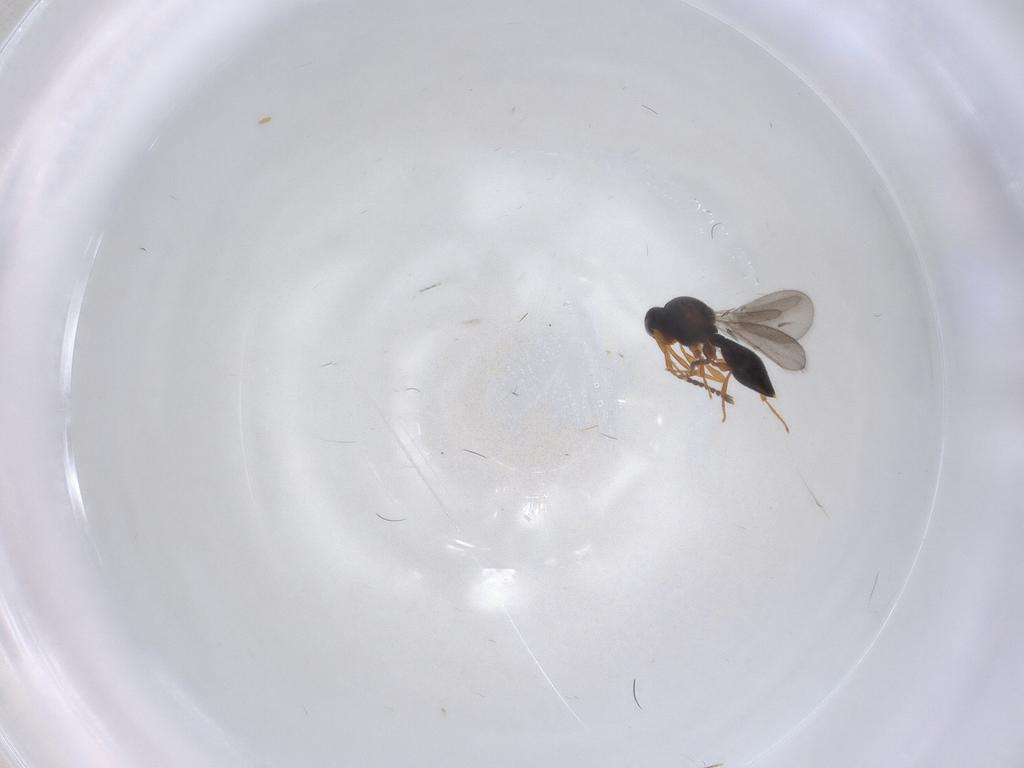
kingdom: Animalia
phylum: Arthropoda
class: Insecta
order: Hymenoptera
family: Platygastridae
